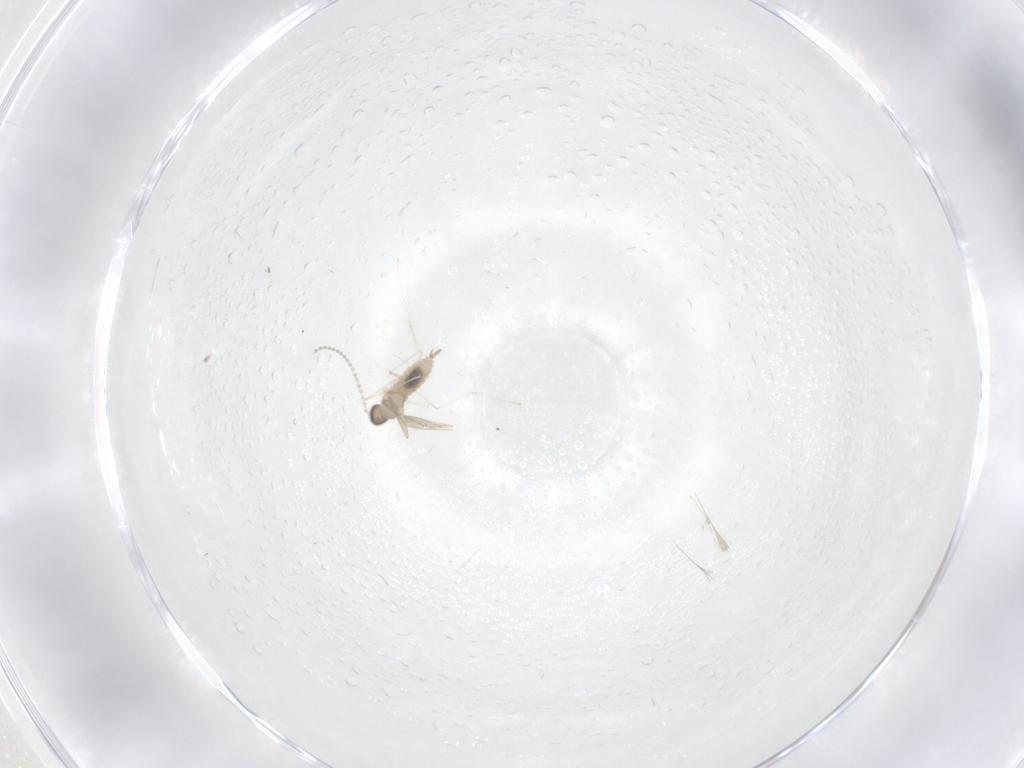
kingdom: Animalia
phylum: Arthropoda
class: Insecta
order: Diptera
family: Cecidomyiidae
